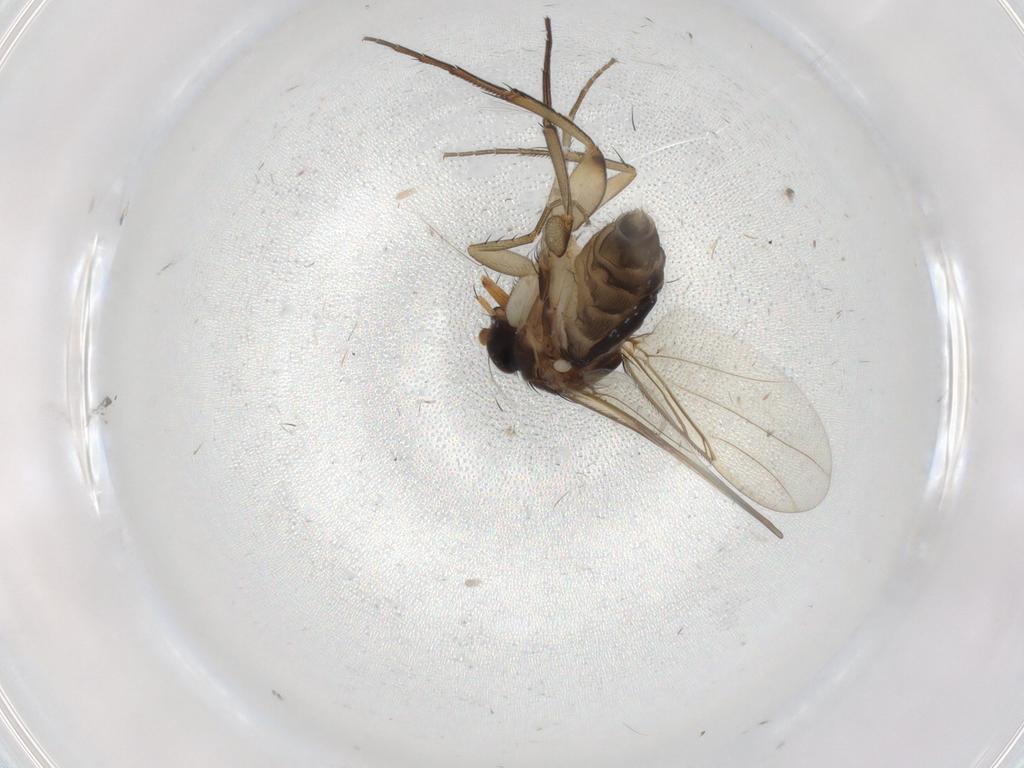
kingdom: Animalia
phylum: Arthropoda
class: Insecta
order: Diptera
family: Phoridae
